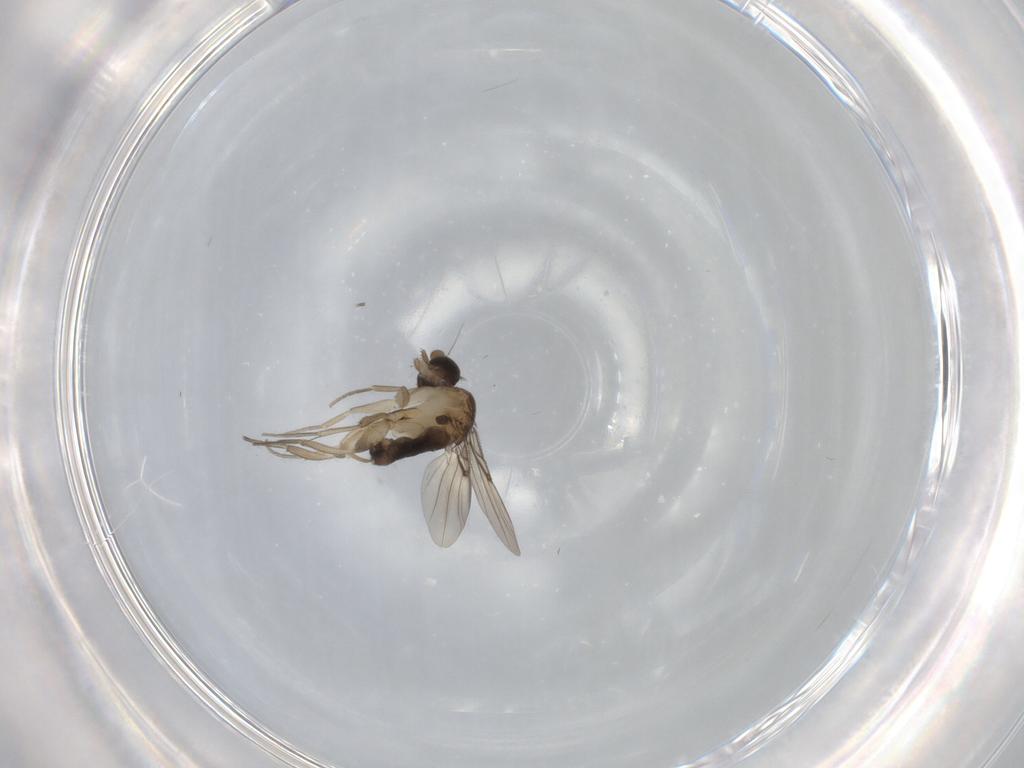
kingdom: Animalia
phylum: Arthropoda
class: Insecta
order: Diptera
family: Phoridae
